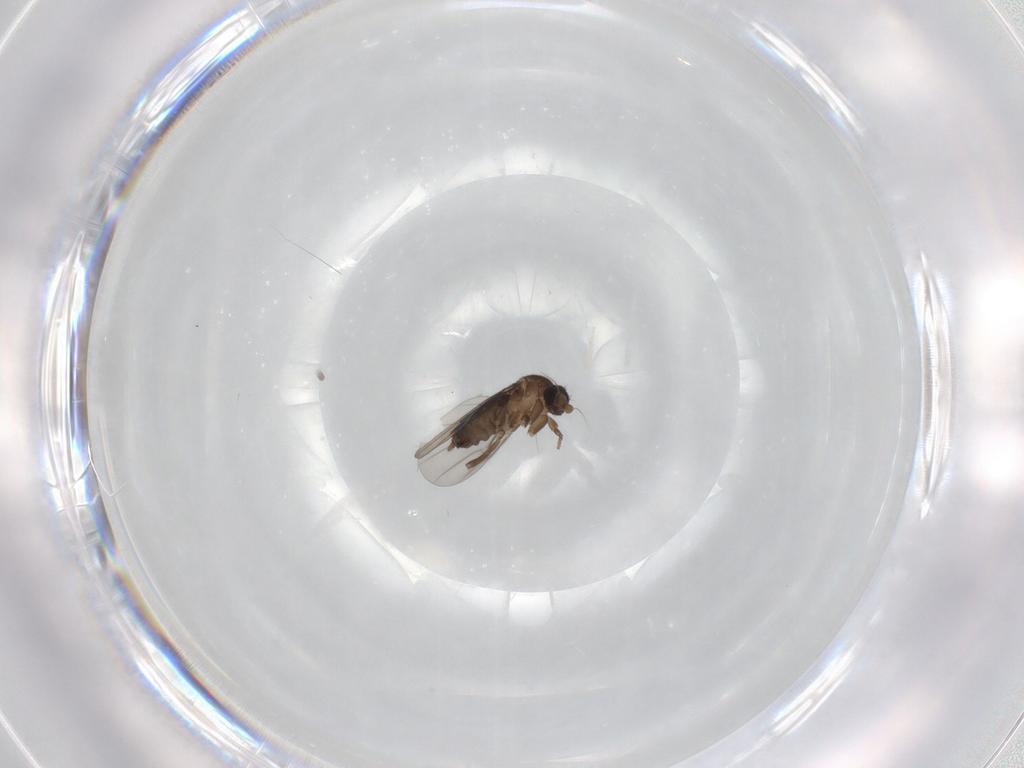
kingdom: Animalia
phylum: Arthropoda
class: Insecta
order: Diptera
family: Phoridae
